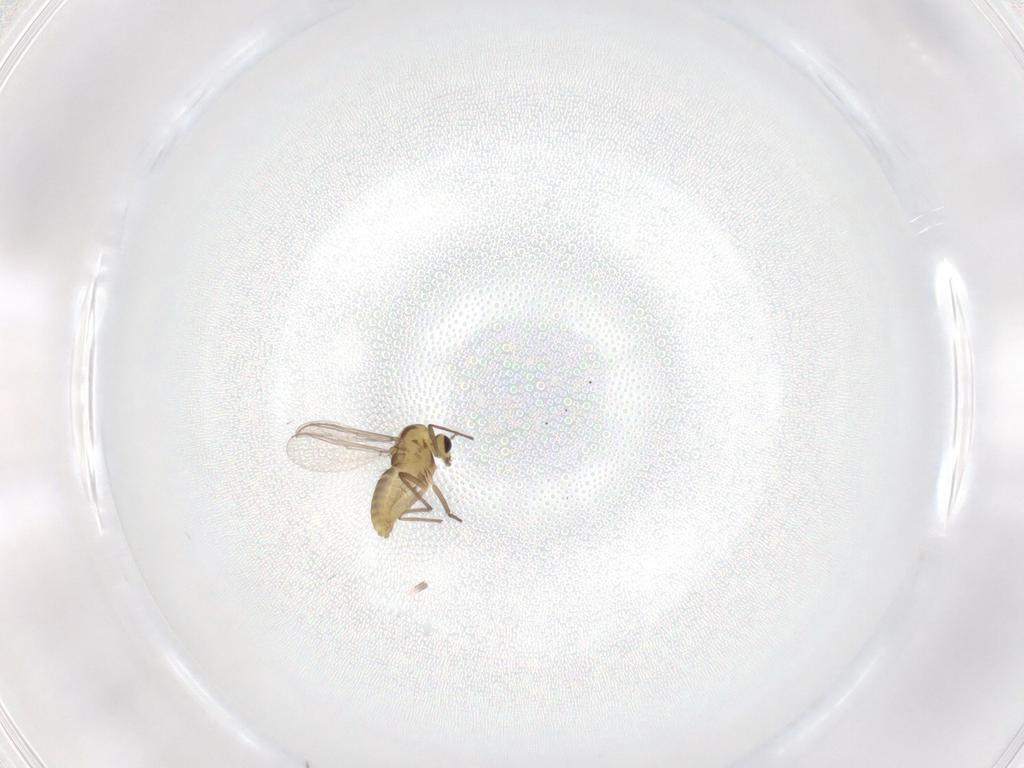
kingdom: Animalia
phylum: Arthropoda
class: Insecta
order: Diptera
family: Chironomidae
